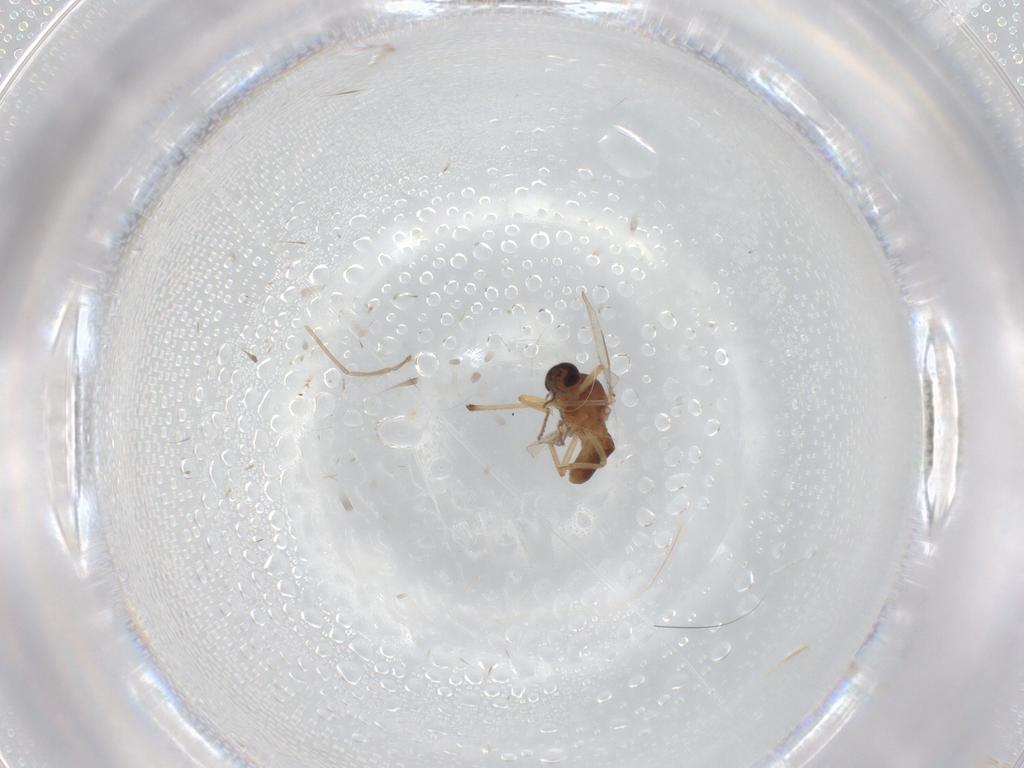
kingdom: Animalia
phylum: Arthropoda
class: Insecta
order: Diptera
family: Ceratopogonidae
